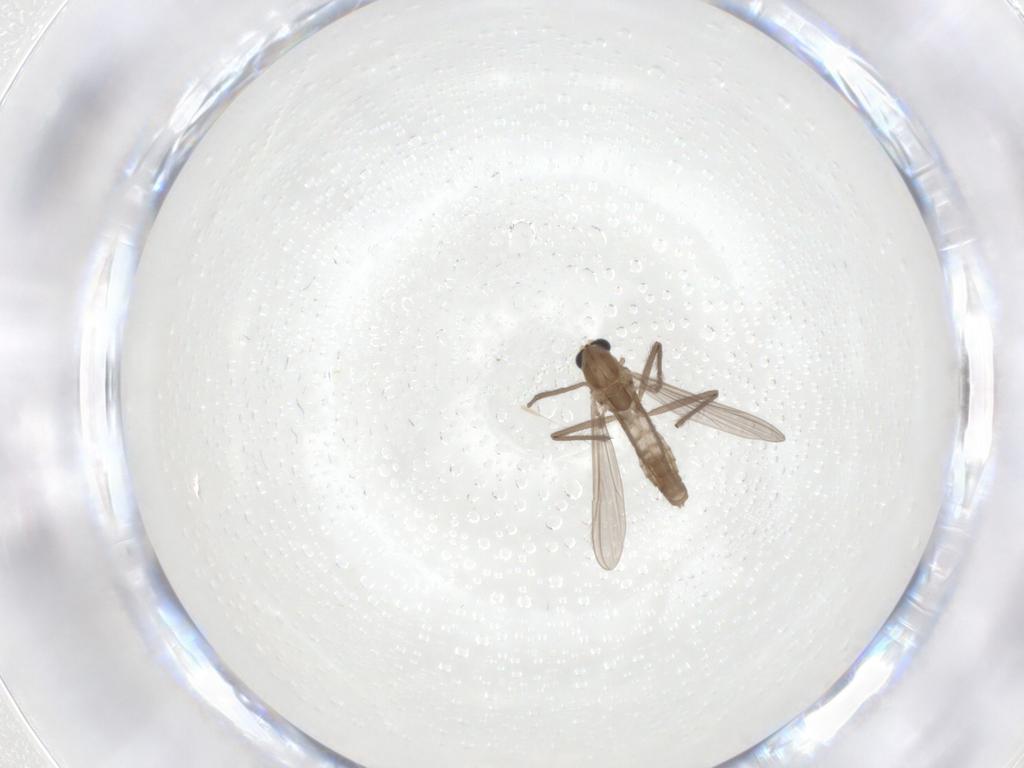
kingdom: Animalia
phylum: Arthropoda
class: Insecta
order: Diptera
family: Chironomidae
